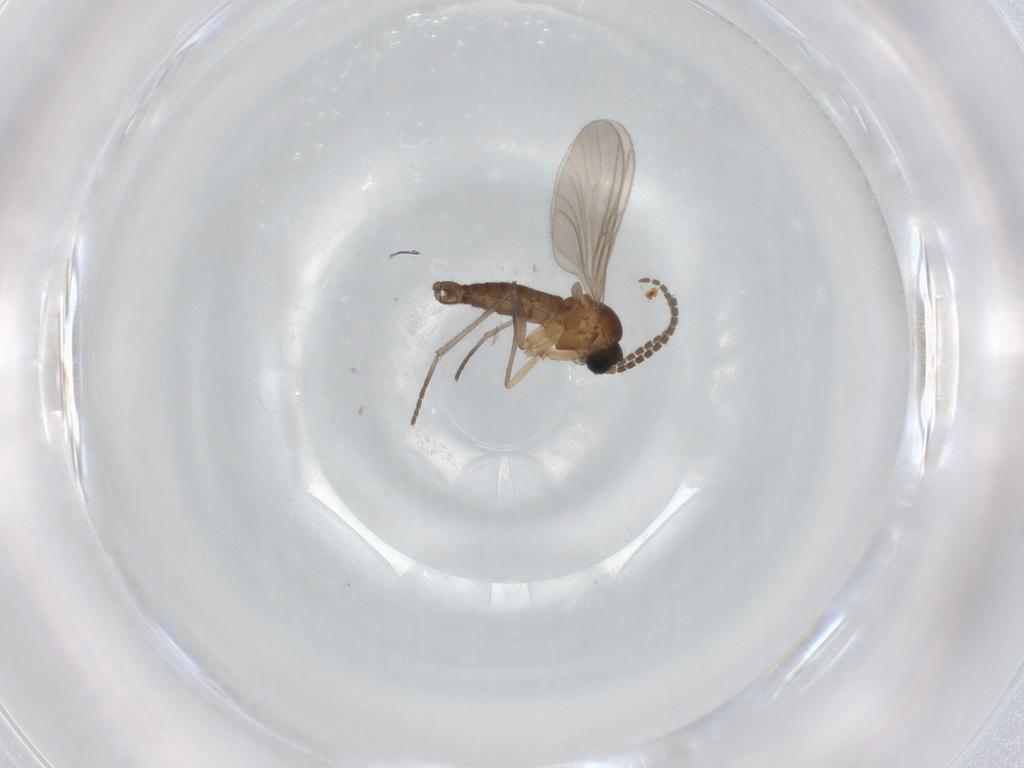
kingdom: Animalia
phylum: Arthropoda
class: Insecta
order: Diptera
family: Sciaridae
